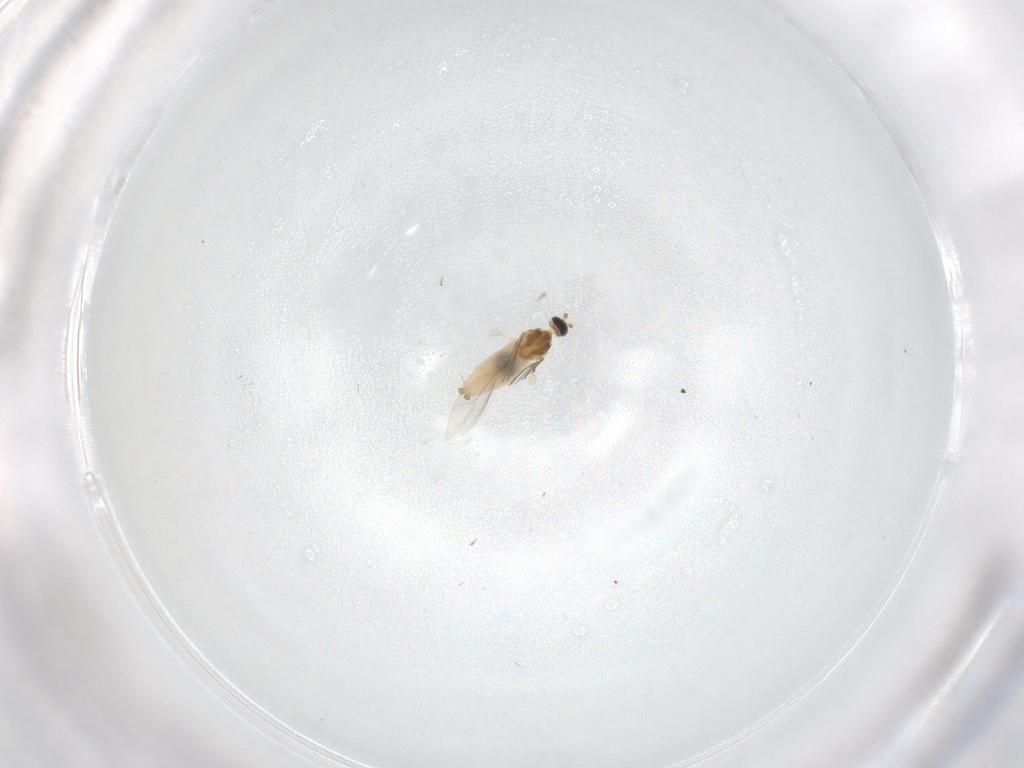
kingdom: Animalia
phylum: Arthropoda
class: Insecta
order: Diptera
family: Cecidomyiidae
